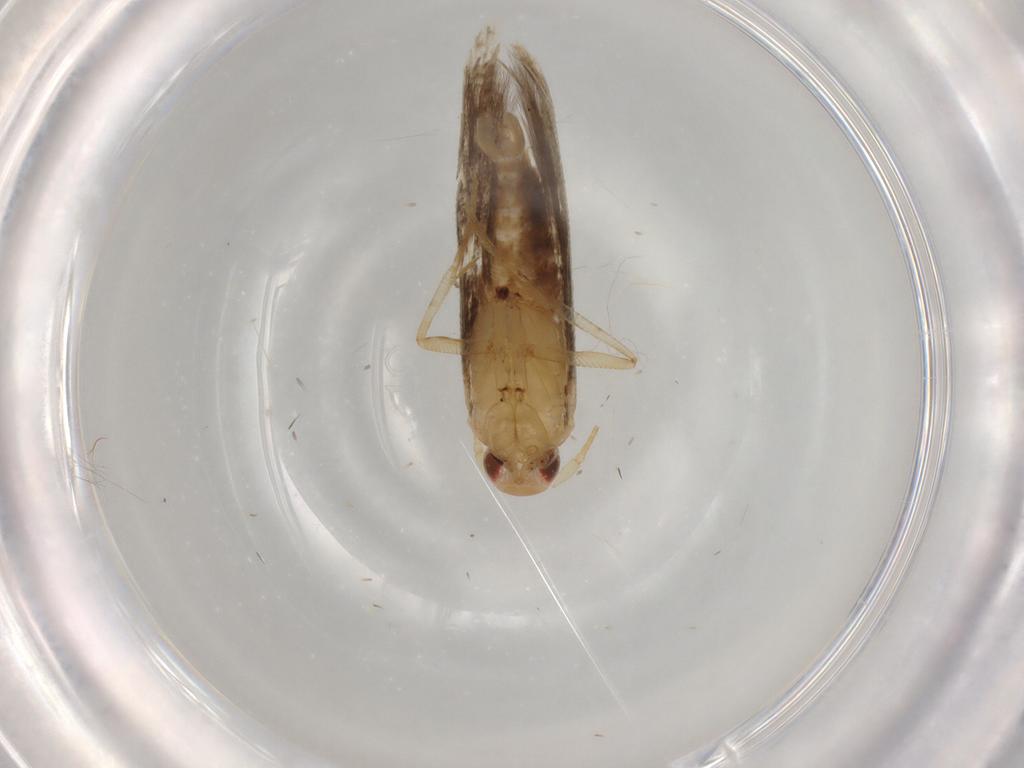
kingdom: Animalia
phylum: Arthropoda
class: Insecta
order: Lepidoptera
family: Cosmopterigidae
